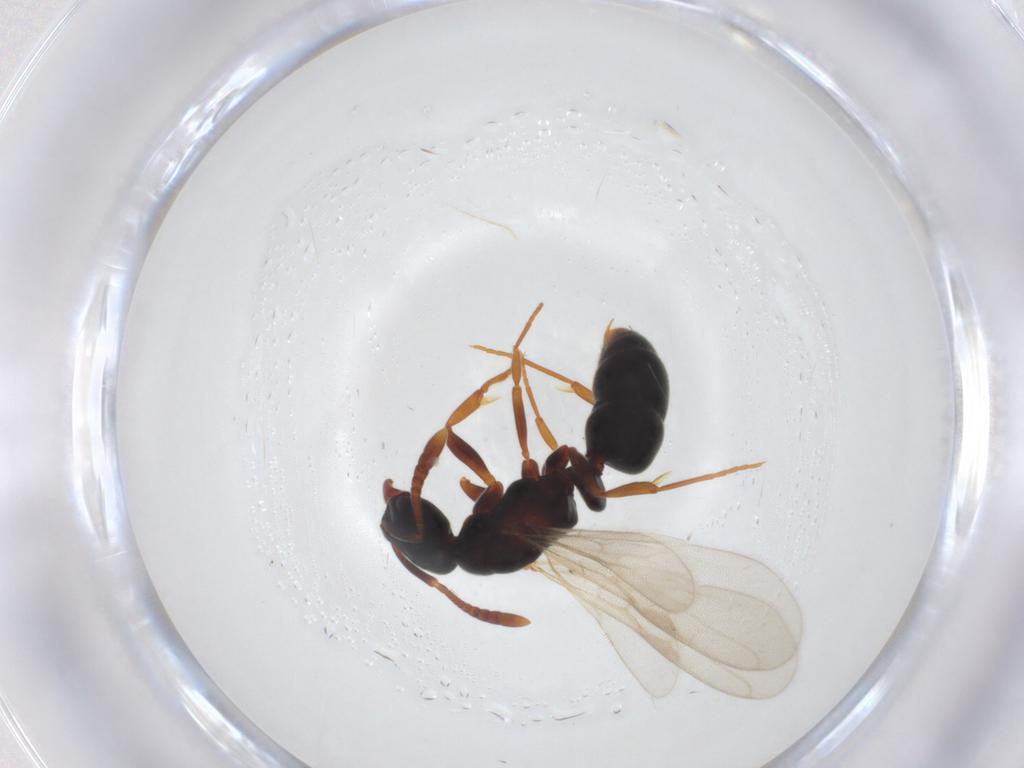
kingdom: Animalia
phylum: Arthropoda
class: Insecta
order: Hymenoptera
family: Formicidae
